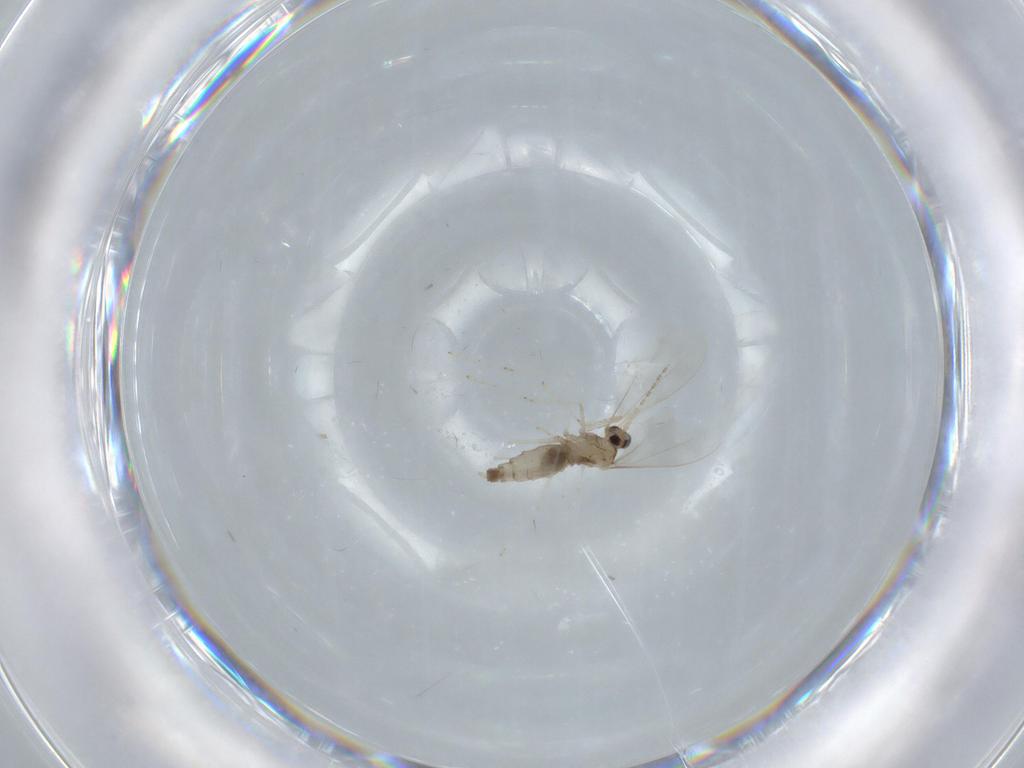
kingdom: Animalia
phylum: Arthropoda
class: Insecta
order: Diptera
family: Cecidomyiidae
